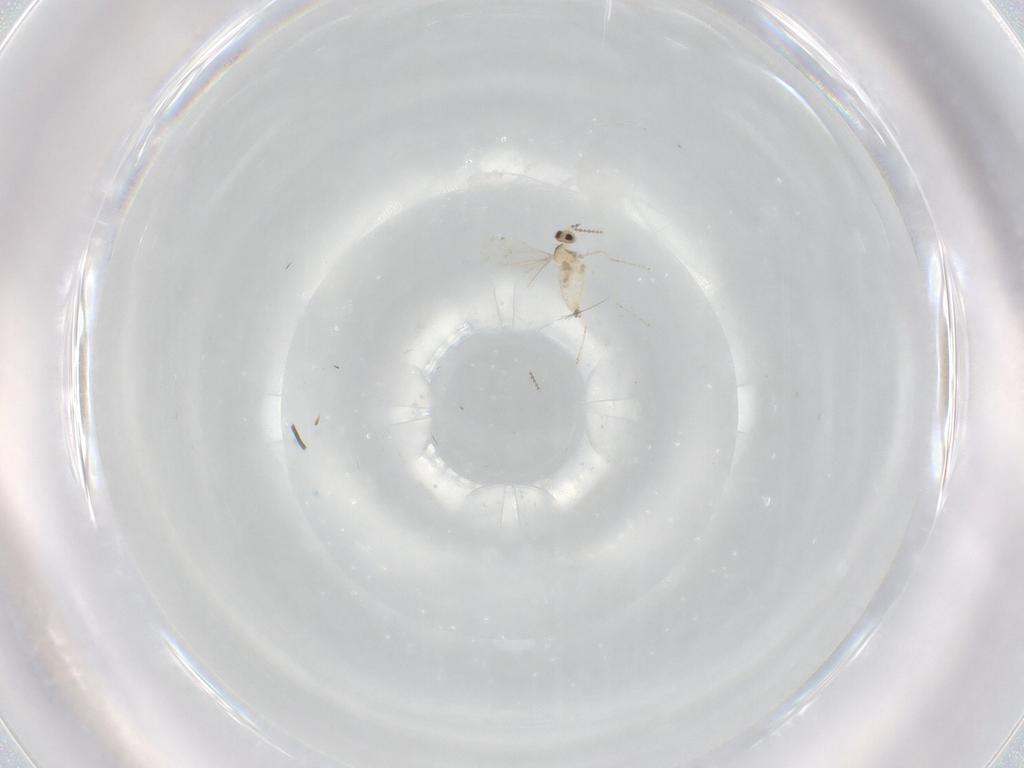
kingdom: Animalia
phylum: Arthropoda
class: Insecta
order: Diptera
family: Cecidomyiidae
